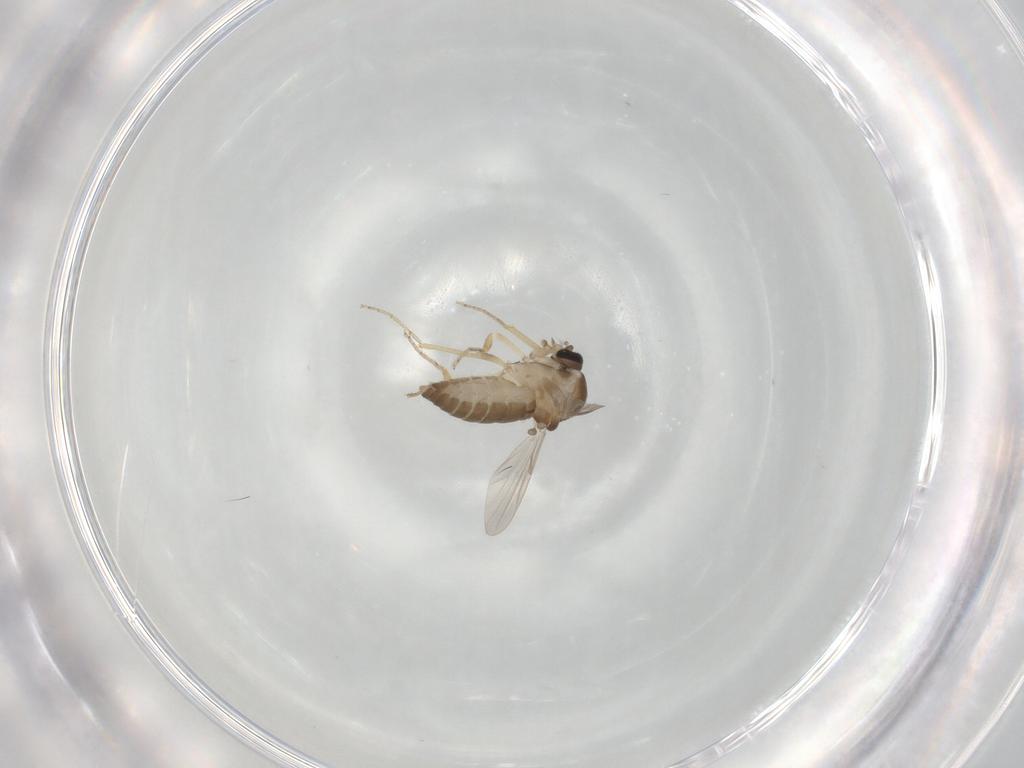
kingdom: Animalia
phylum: Arthropoda
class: Insecta
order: Diptera
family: Ceratopogonidae
